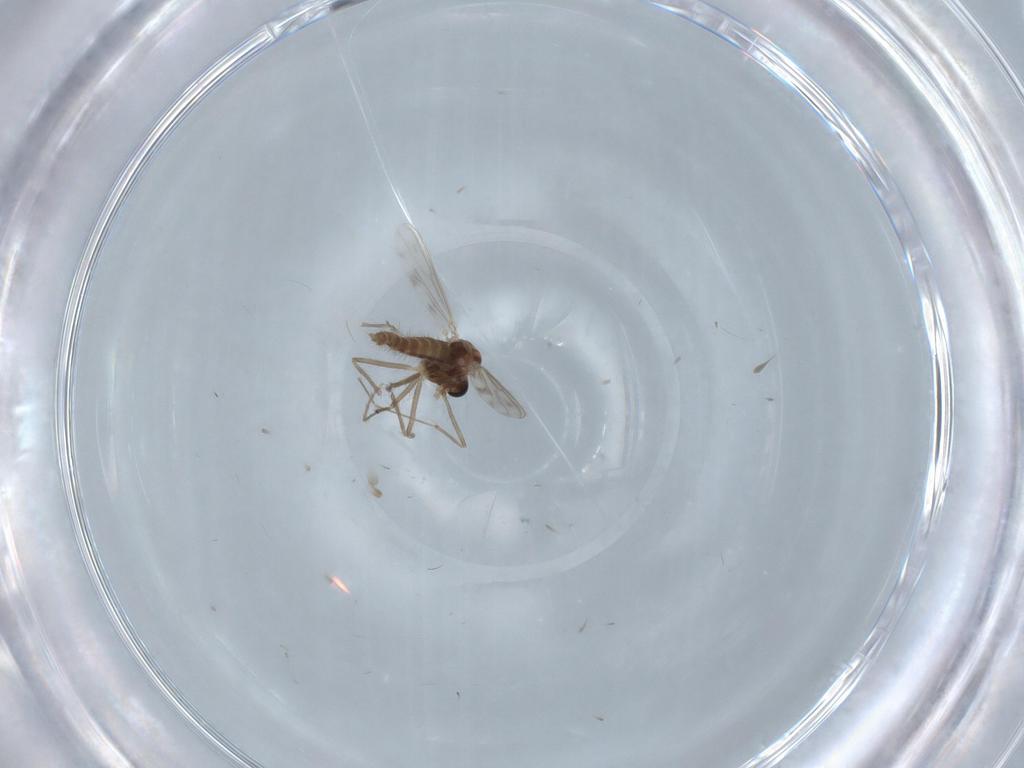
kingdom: Animalia
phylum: Arthropoda
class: Insecta
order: Diptera
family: Chironomidae
